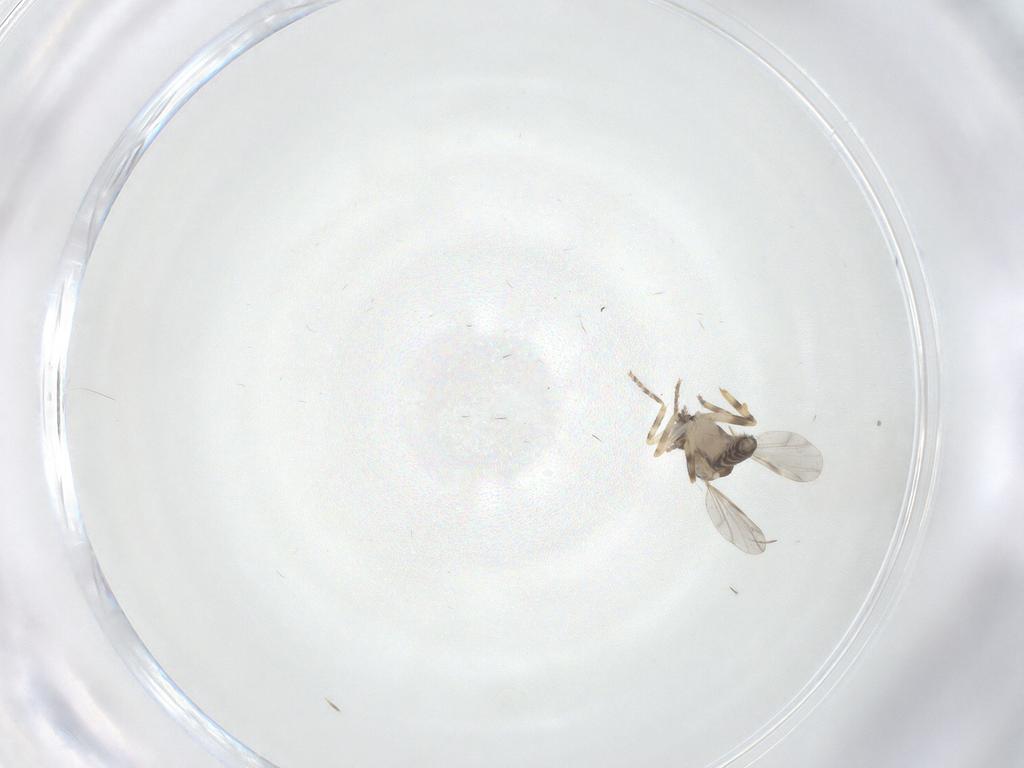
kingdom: Animalia
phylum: Arthropoda
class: Insecta
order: Diptera
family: Ceratopogonidae
